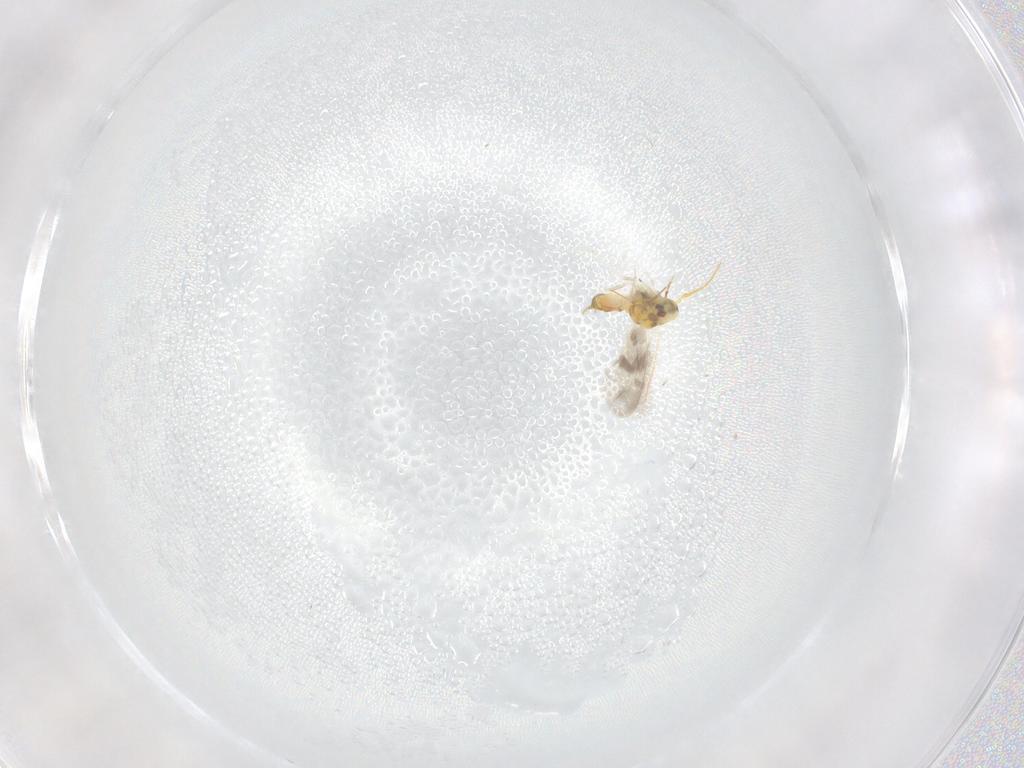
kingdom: Animalia
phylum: Arthropoda
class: Insecta
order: Hemiptera
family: Aleyrodidae
